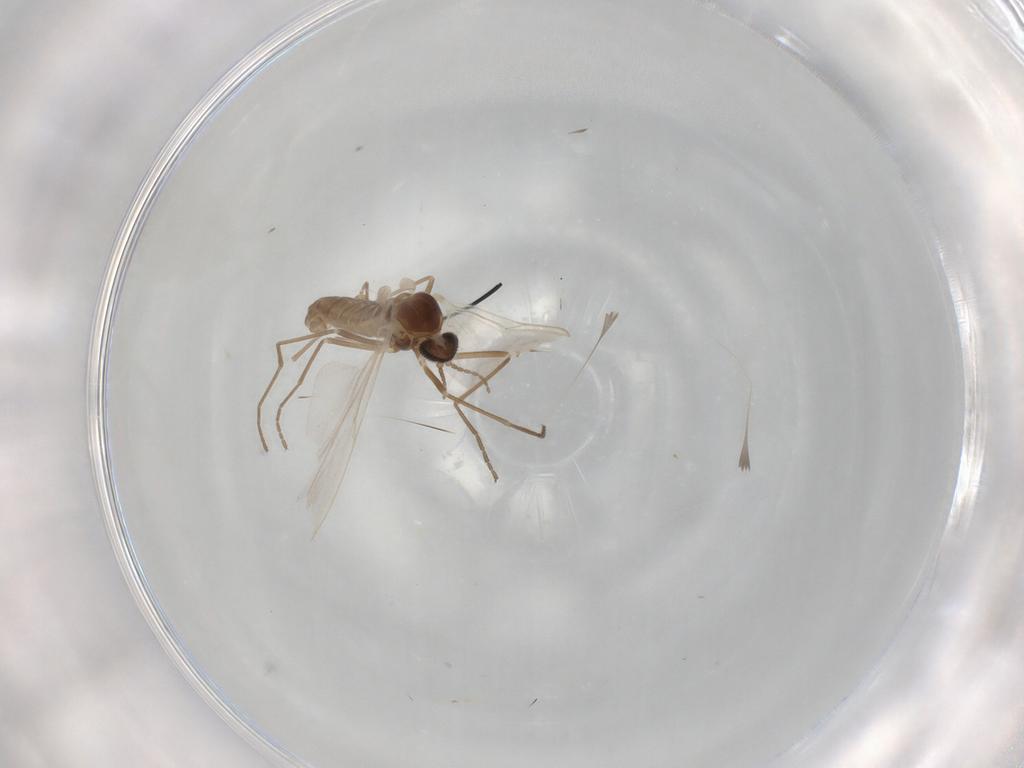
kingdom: Animalia
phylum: Arthropoda
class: Insecta
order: Diptera
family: Cecidomyiidae
